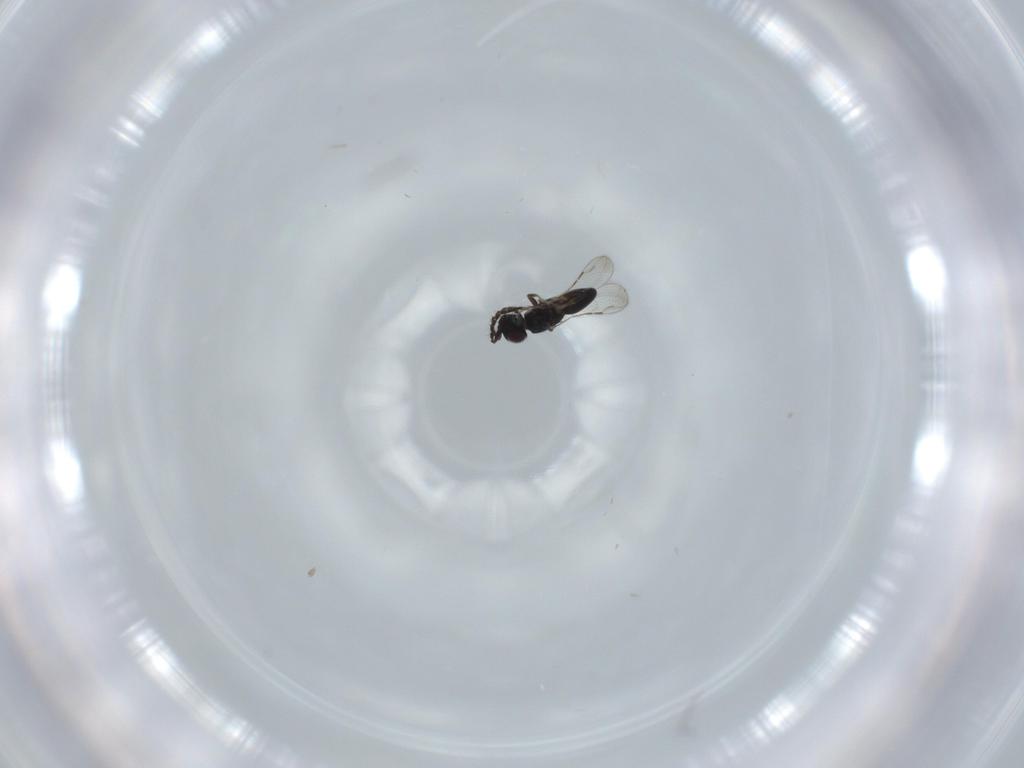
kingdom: Animalia
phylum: Arthropoda
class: Insecta
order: Hymenoptera
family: Ceraphronidae
